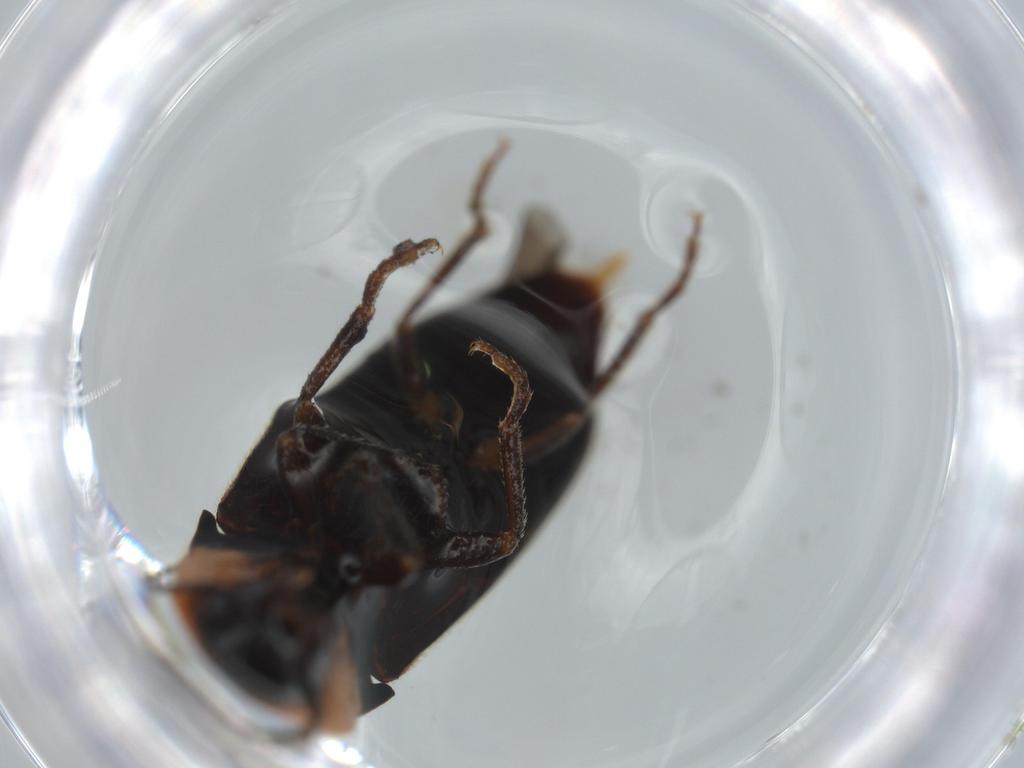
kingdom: Animalia
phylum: Arthropoda
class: Insecta
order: Coleoptera
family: Elateridae
